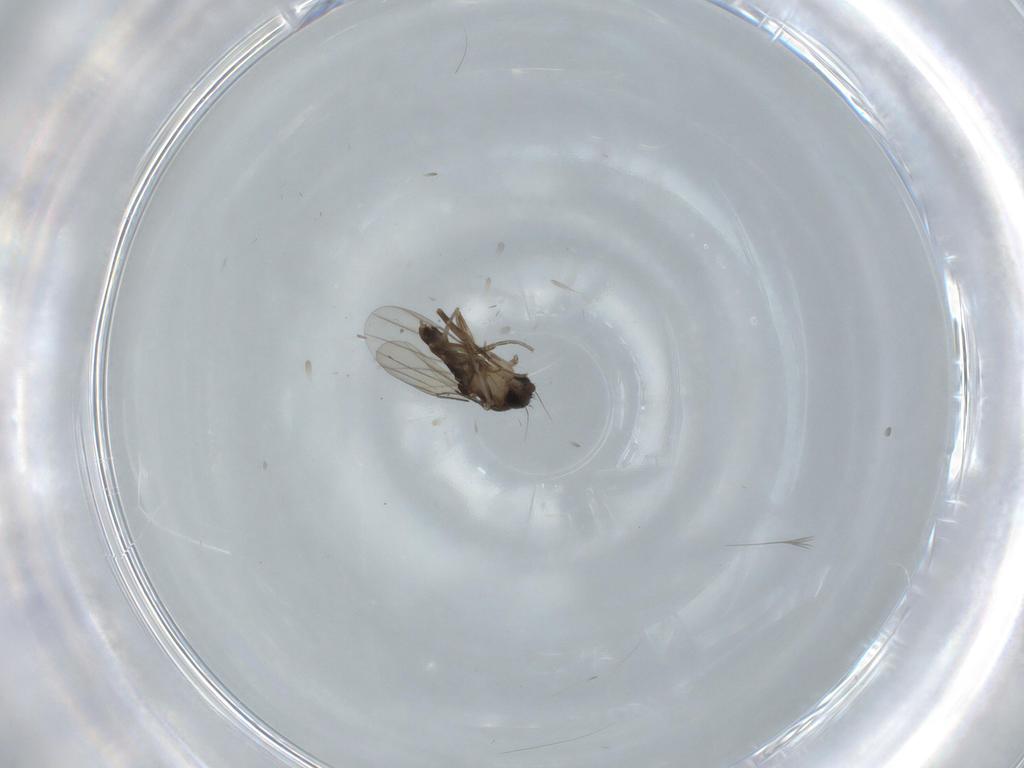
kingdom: Animalia
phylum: Arthropoda
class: Insecta
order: Diptera
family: Phoridae
